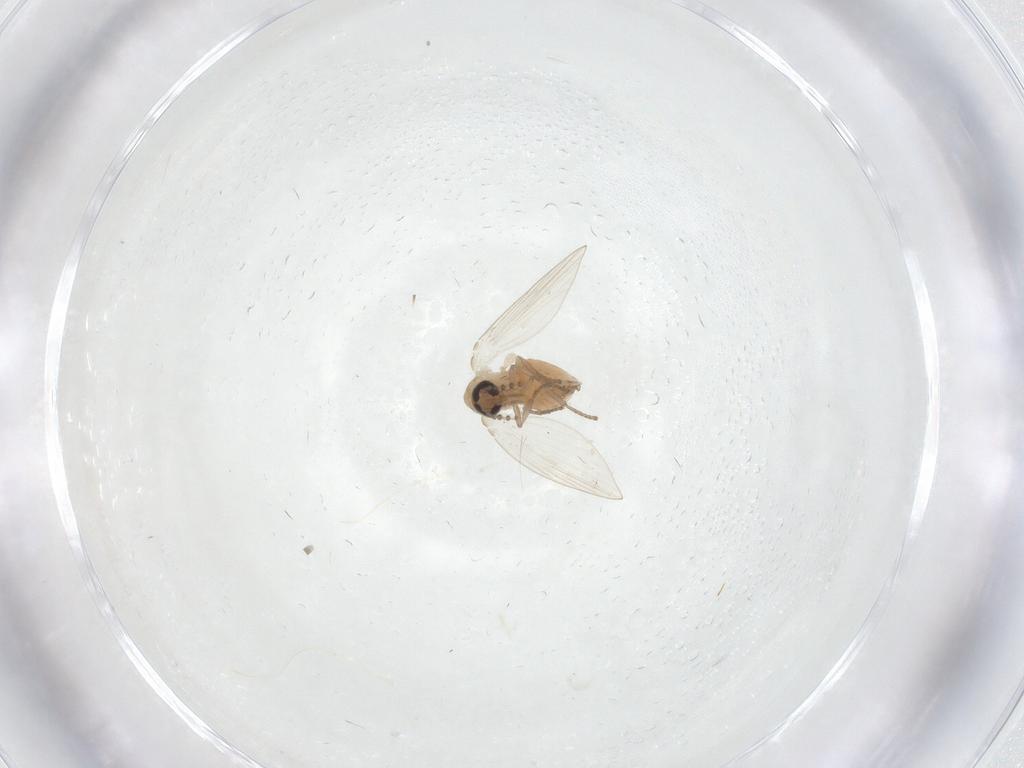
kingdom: Animalia
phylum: Arthropoda
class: Insecta
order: Diptera
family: Psychodidae
